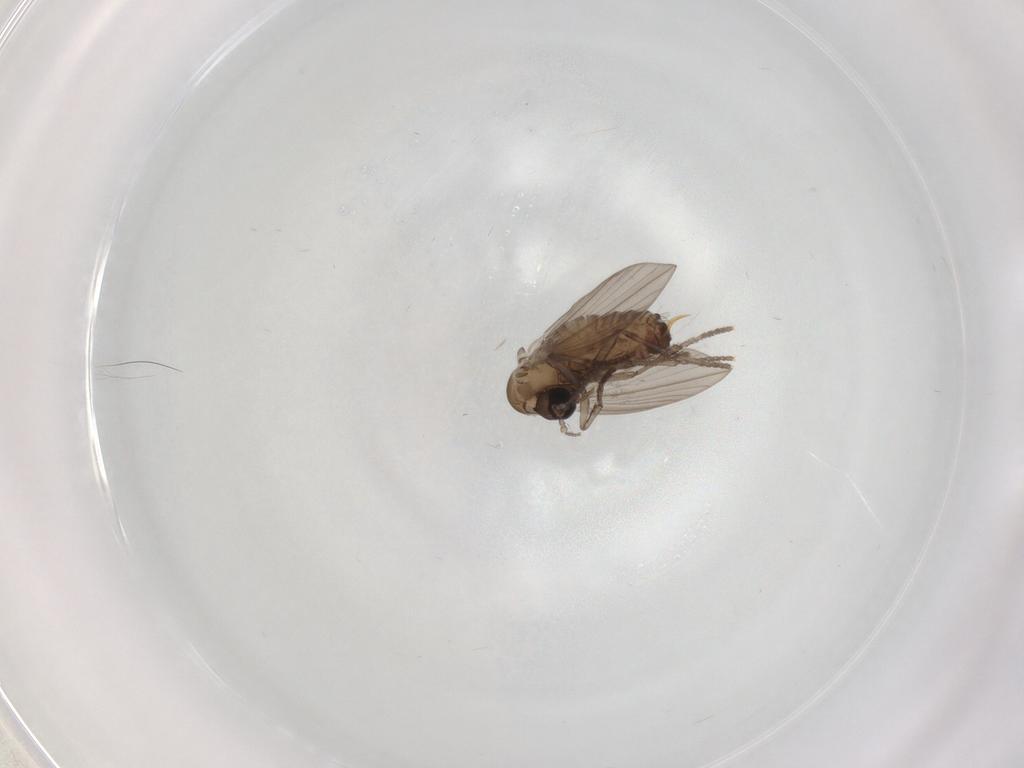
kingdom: Animalia
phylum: Arthropoda
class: Insecta
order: Diptera
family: Psychodidae
